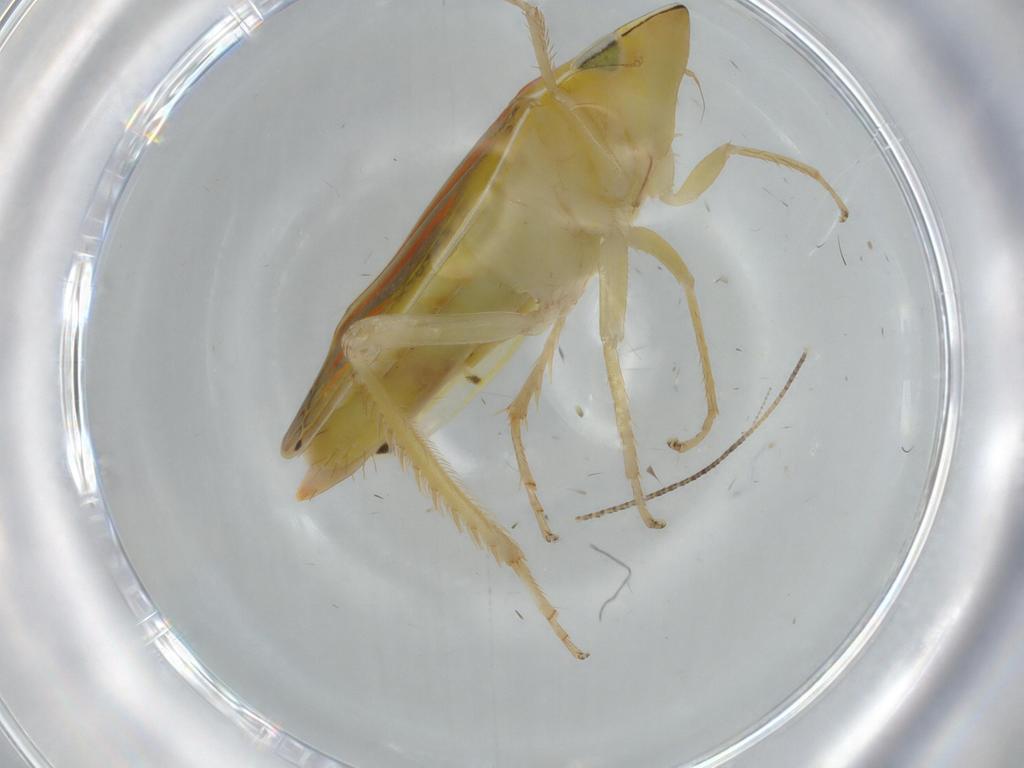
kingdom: Animalia
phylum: Arthropoda
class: Insecta
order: Hemiptera
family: Cicadellidae
